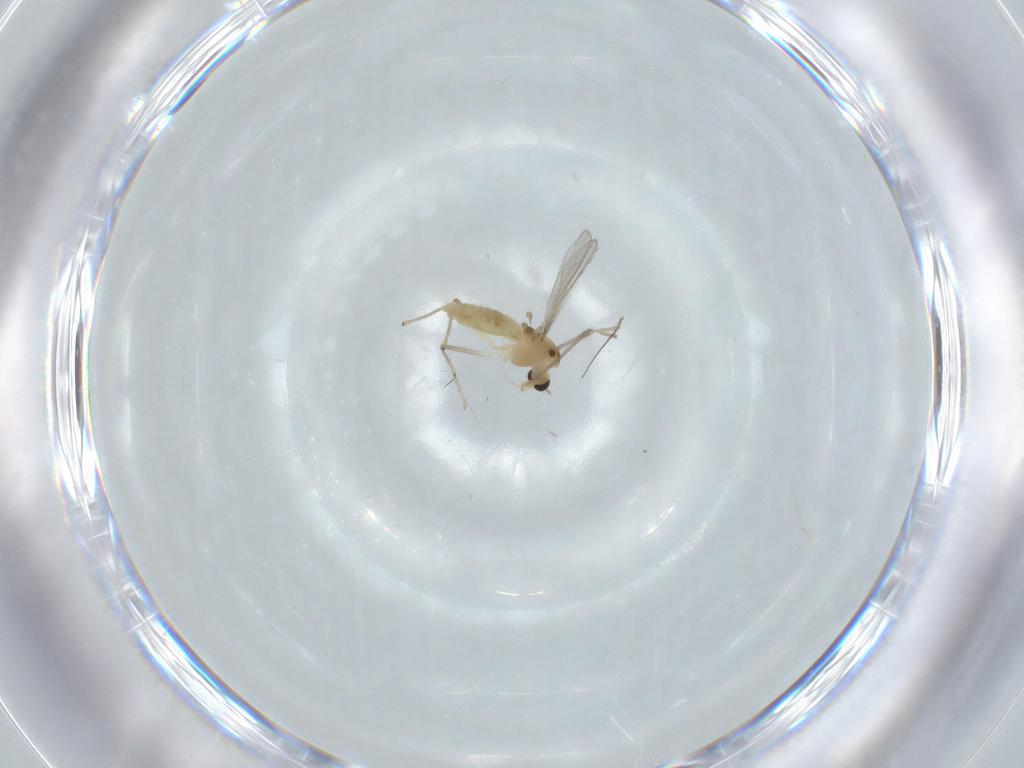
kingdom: Animalia
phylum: Arthropoda
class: Insecta
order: Diptera
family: Chironomidae
